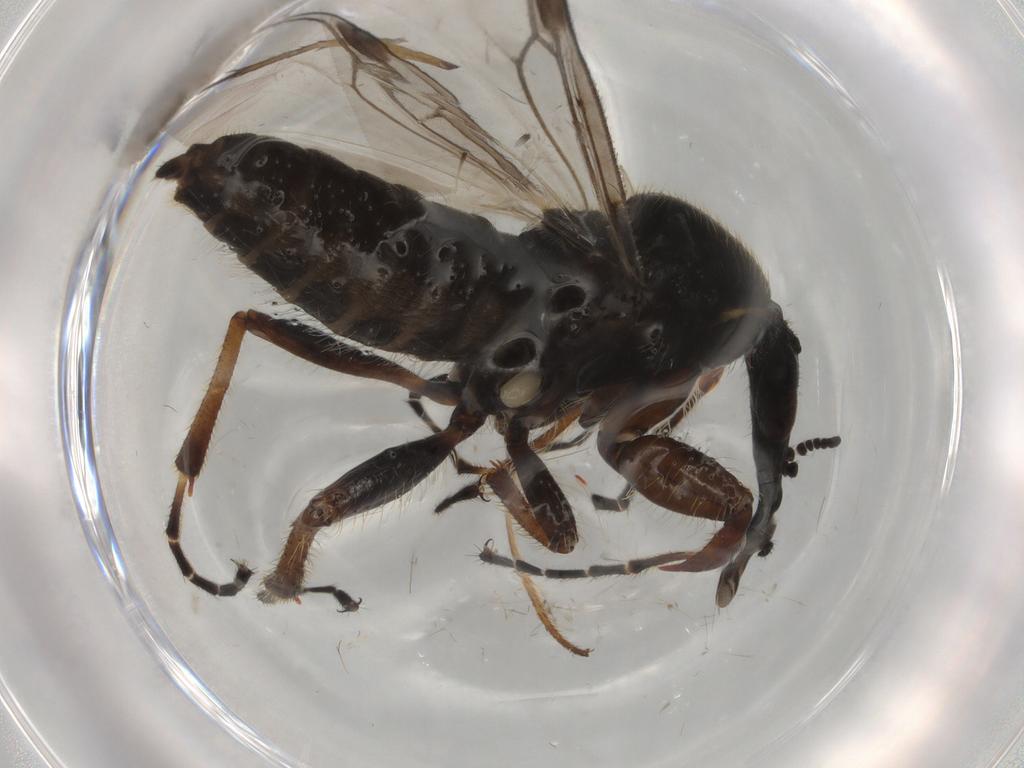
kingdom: Animalia
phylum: Arthropoda
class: Insecta
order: Diptera
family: Bibionidae
